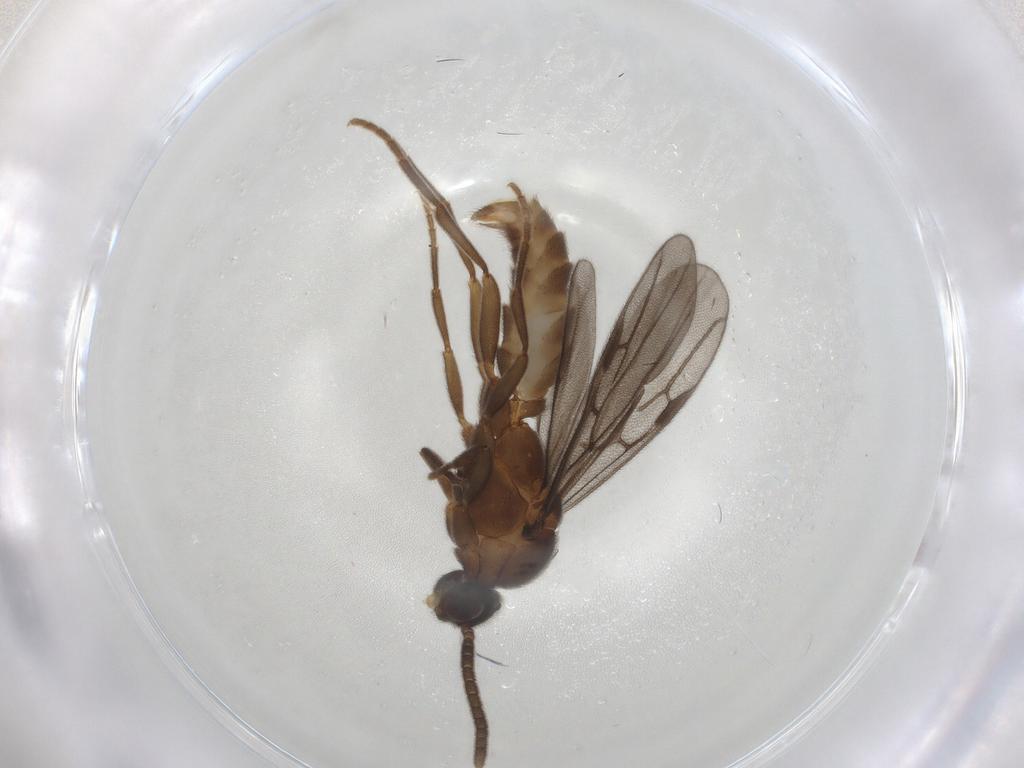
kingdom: Animalia
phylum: Arthropoda
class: Insecta
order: Hymenoptera
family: Formicidae
